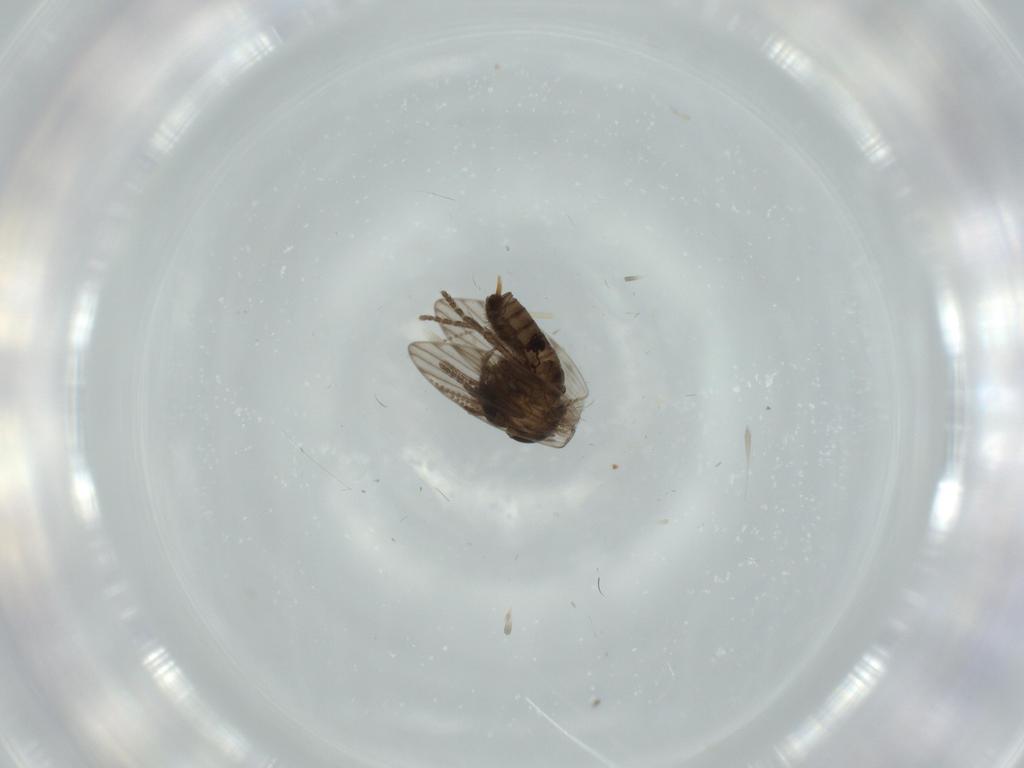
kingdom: Animalia
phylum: Arthropoda
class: Insecta
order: Diptera
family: Psychodidae
